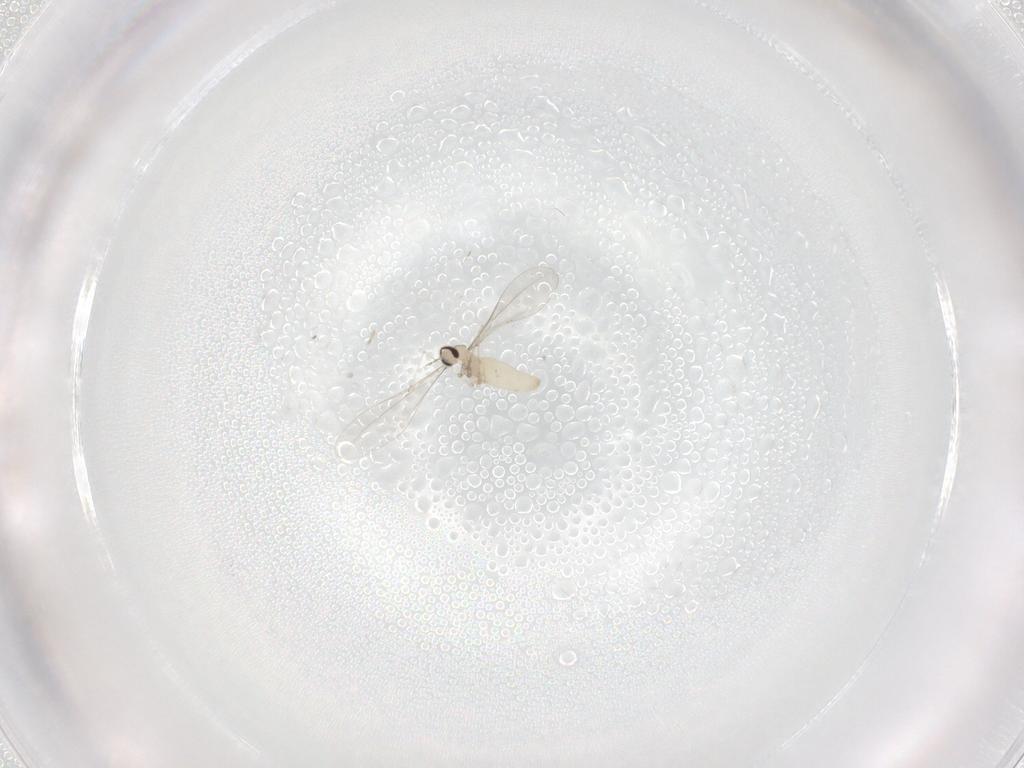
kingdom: Animalia
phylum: Arthropoda
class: Insecta
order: Diptera
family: Cecidomyiidae
